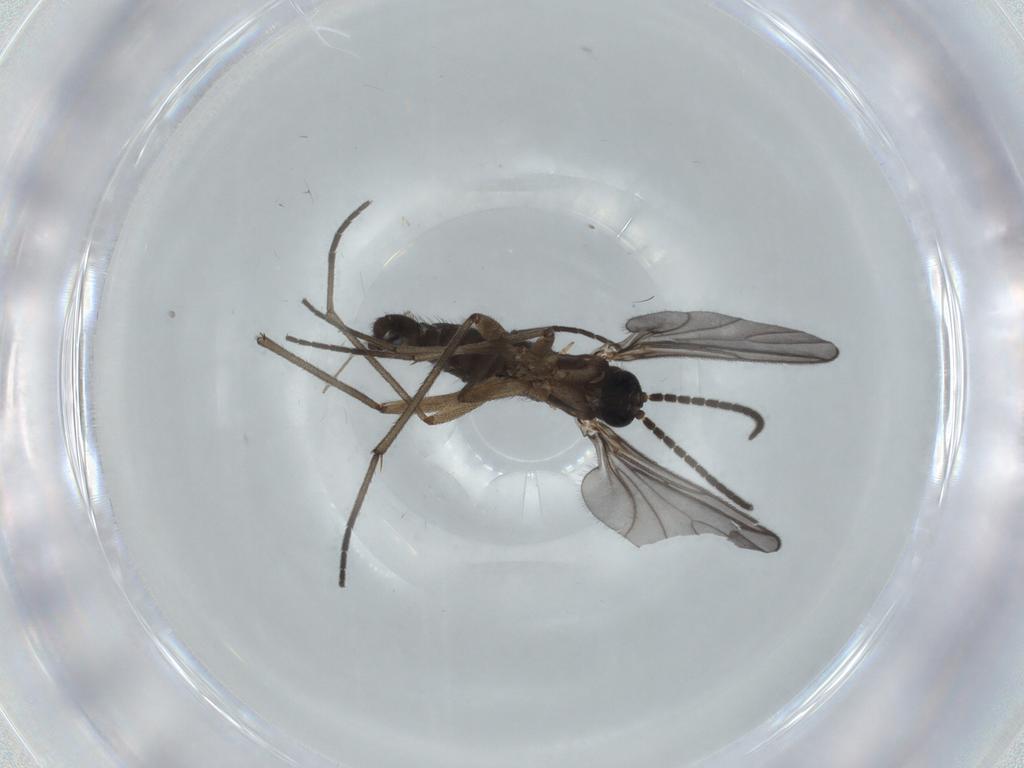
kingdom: Animalia
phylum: Arthropoda
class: Insecta
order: Diptera
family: Sciaridae
